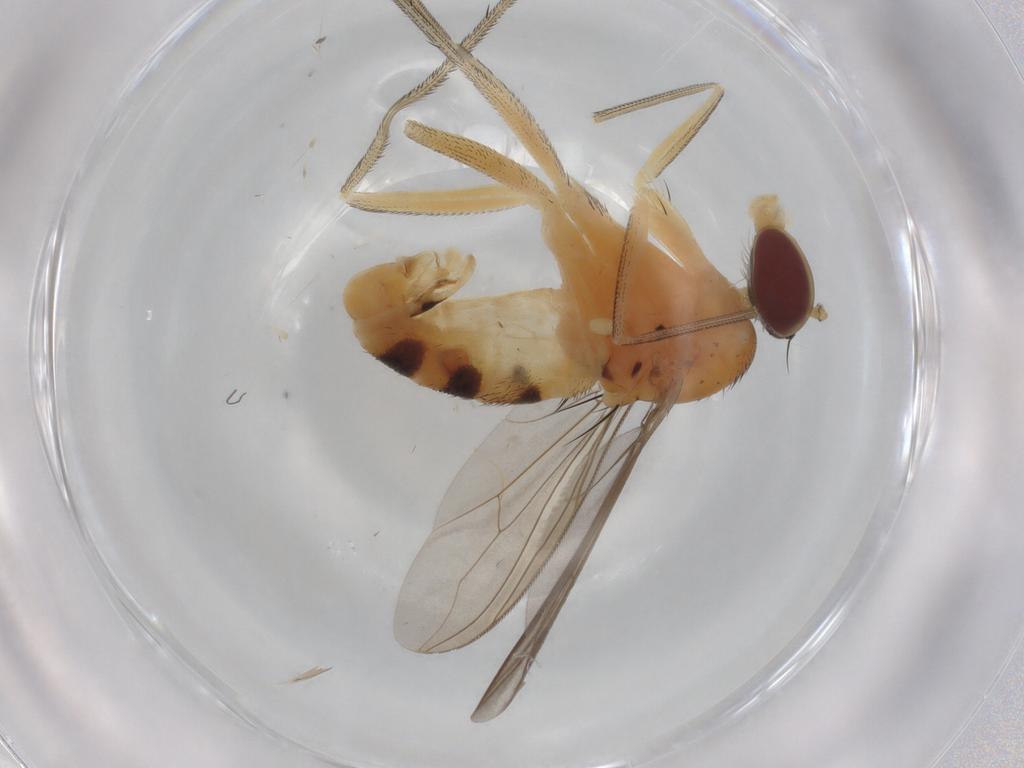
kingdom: Animalia
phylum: Arthropoda
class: Insecta
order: Diptera
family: Dolichopodidae
